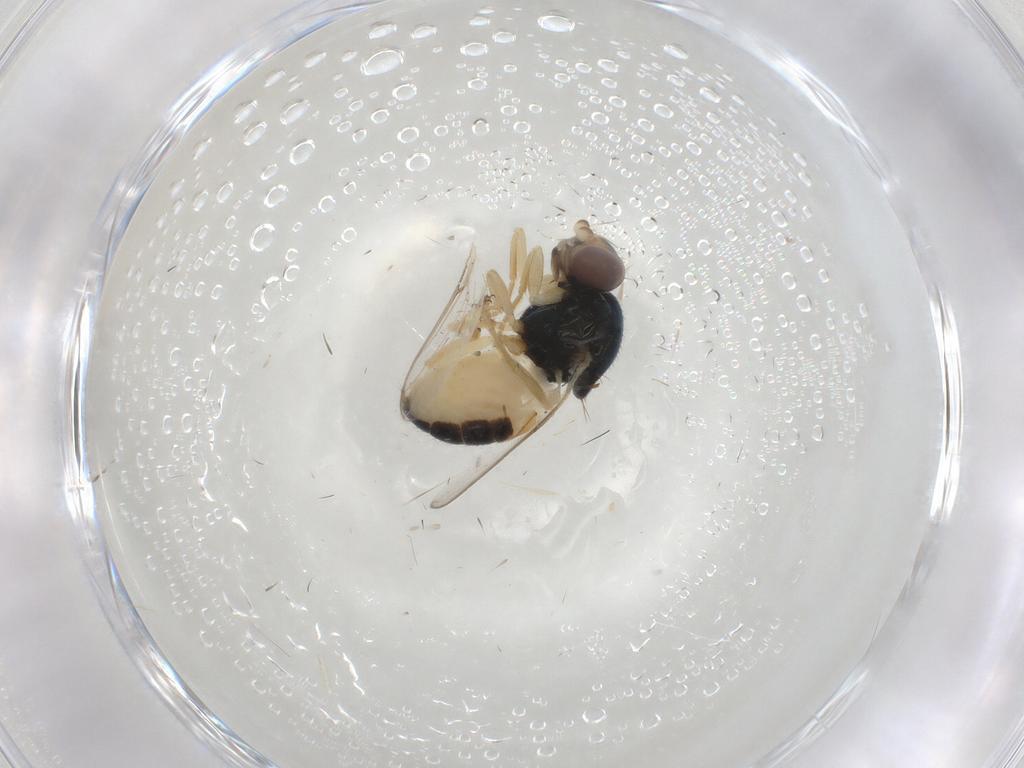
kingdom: Animalia
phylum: Arthropoda
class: Insecta
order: Diptera
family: Chloropidae
